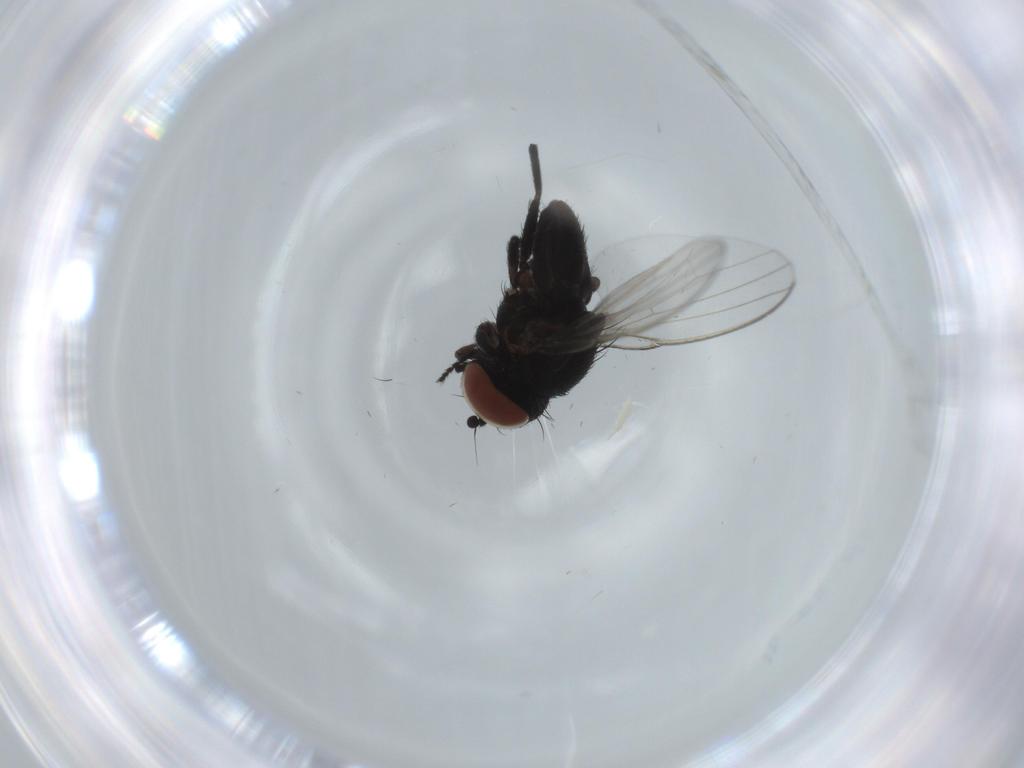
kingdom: Animalia
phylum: Arthropoda
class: Insecta
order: Diptera
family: Milichiidae
